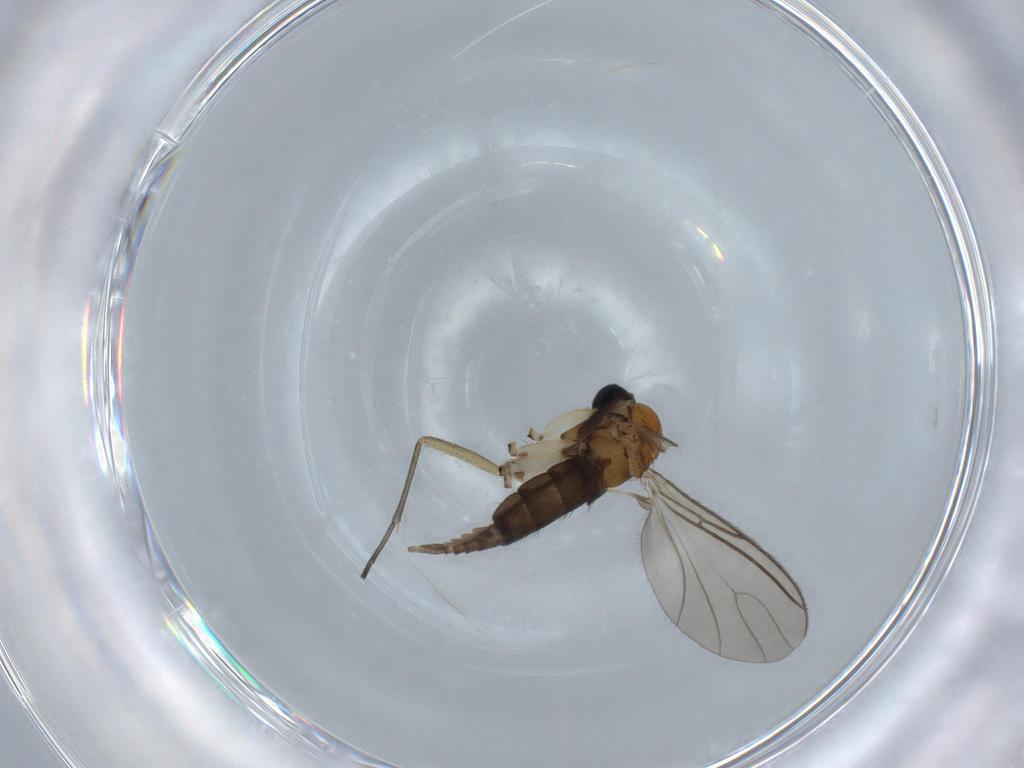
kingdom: Animalia
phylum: Arthropoda
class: Insecta
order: Diptera
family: Sciaridae
